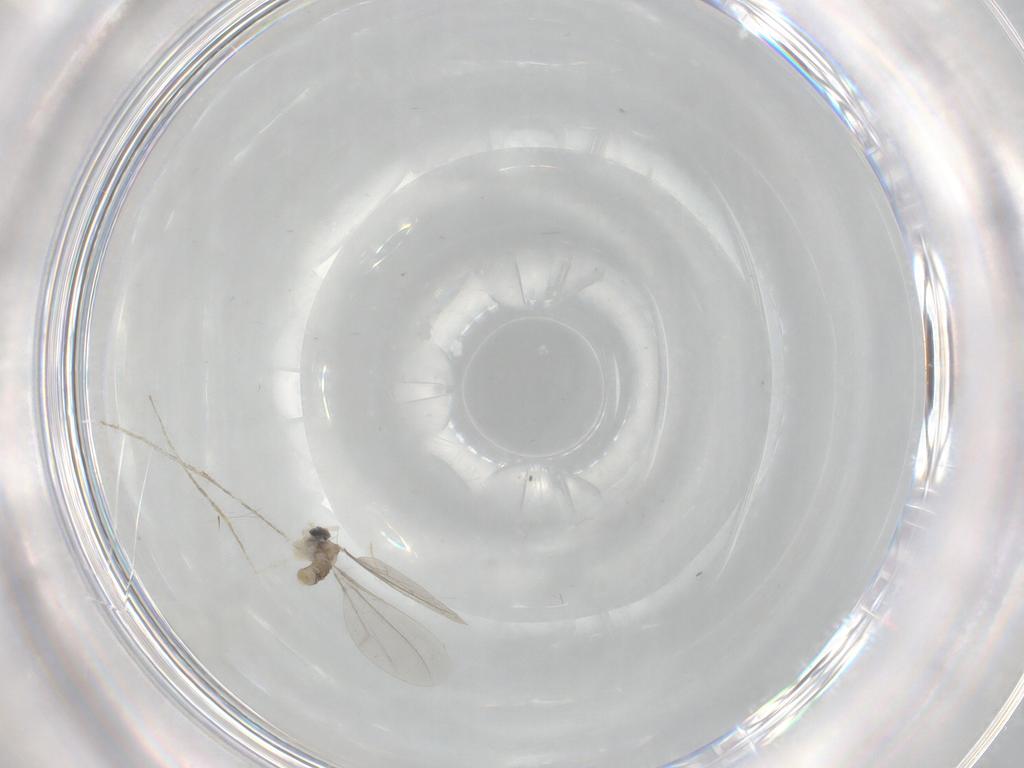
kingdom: Animalia
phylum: Arthropoda
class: Insecta
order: Diptera
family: Cecidomyiidae
